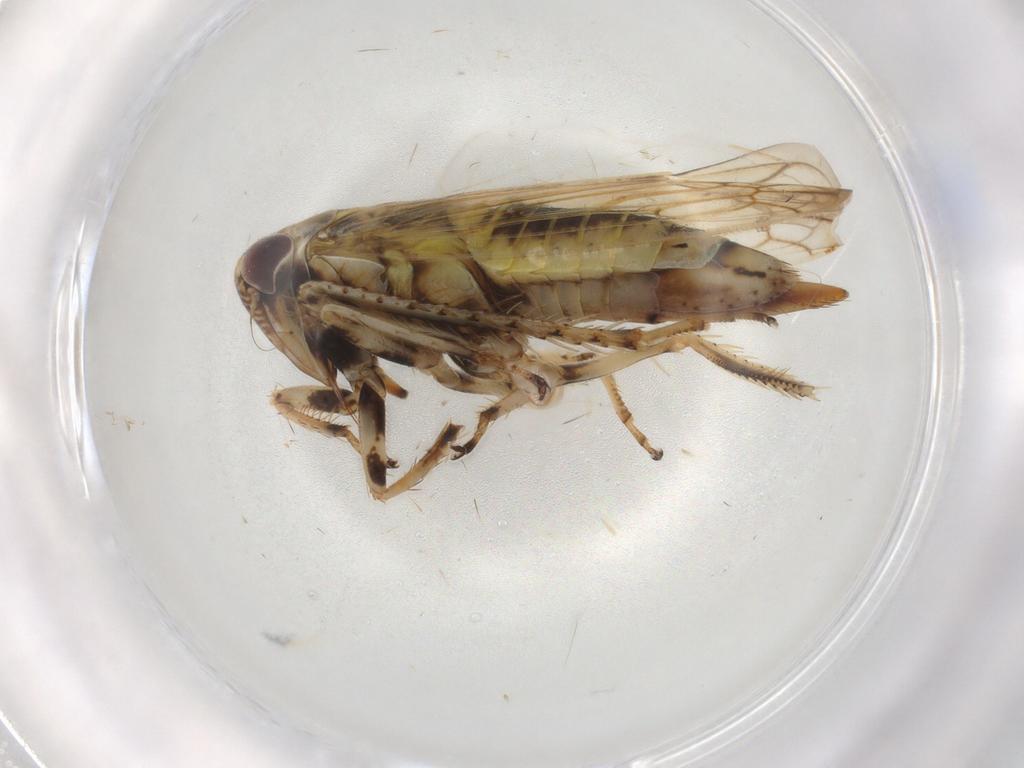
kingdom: Animalia
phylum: Arthropoda
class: Insecta
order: Hemiptera
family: Cicadellidae
